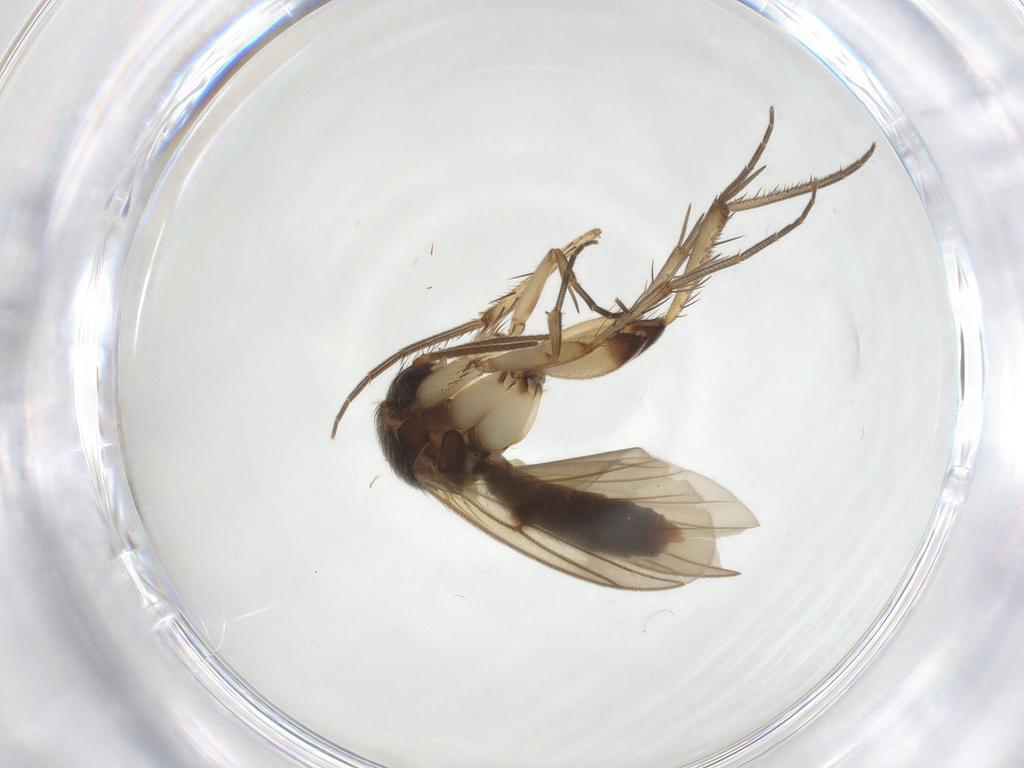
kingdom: Animalia
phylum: Arthropoda
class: Insecta
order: Diptera
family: Mycetophilidae
